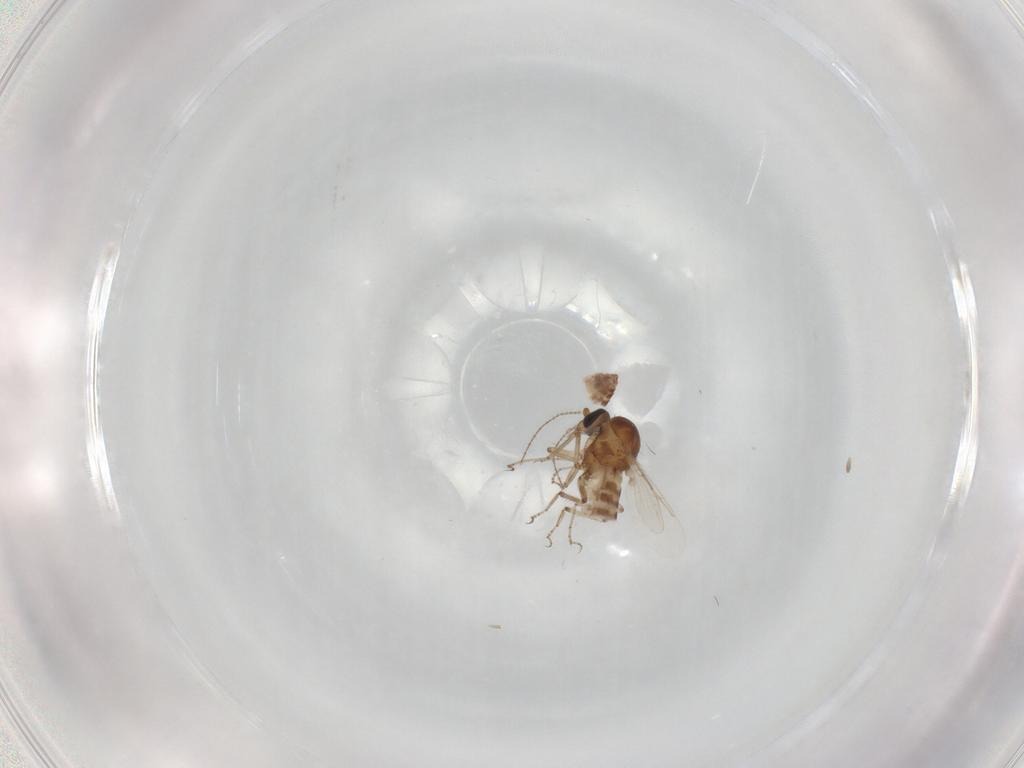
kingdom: Animalia
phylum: Arthropoda
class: Insecta
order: Diptera
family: Ceratopogonidae
